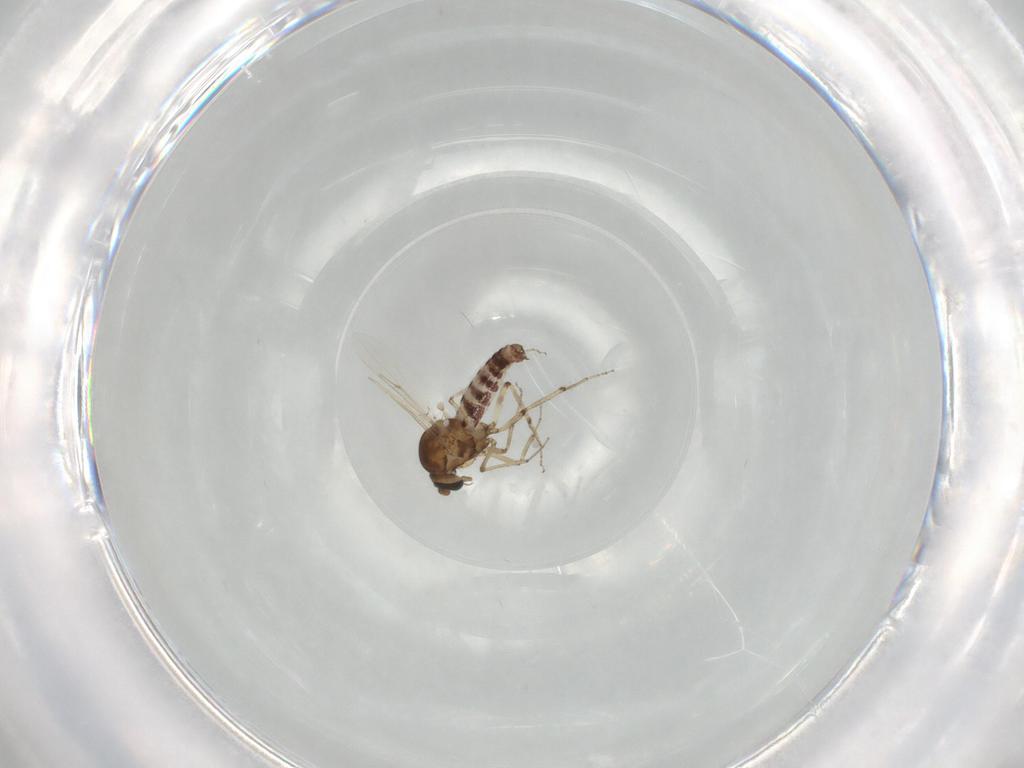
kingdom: Animalia
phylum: Arthropoda
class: Insecta
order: Diptera
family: Ceratopogonidae
